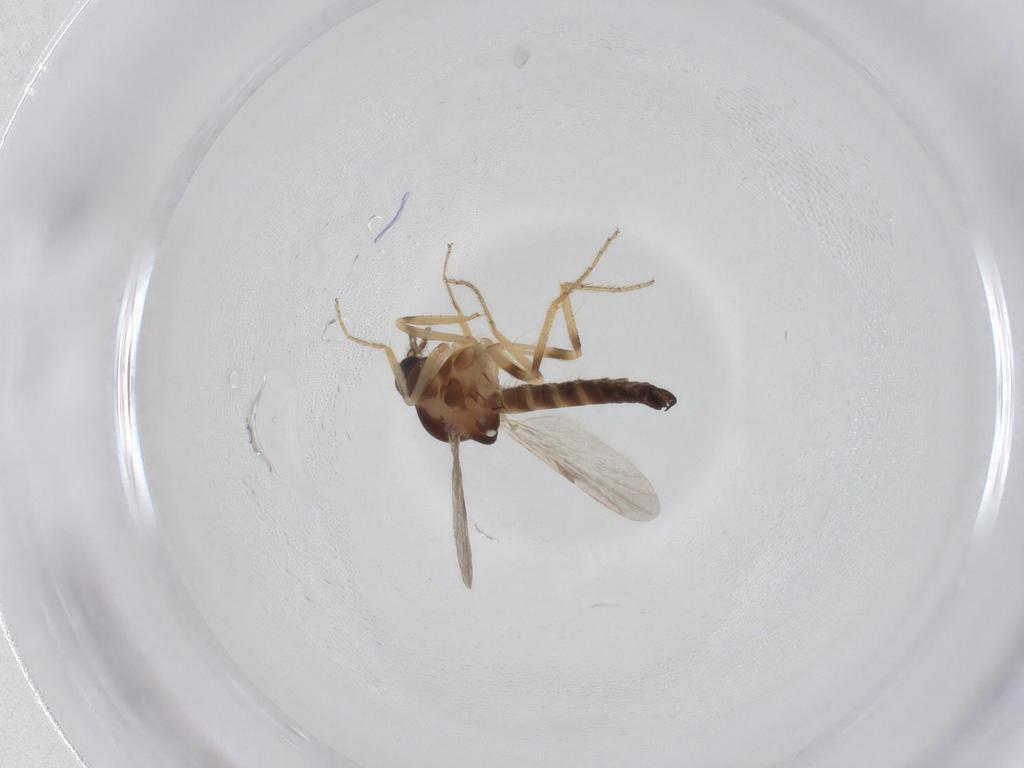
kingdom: Animalia
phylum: Arthropoda
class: Insecta
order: Diptera
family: Ceratopogonidae
